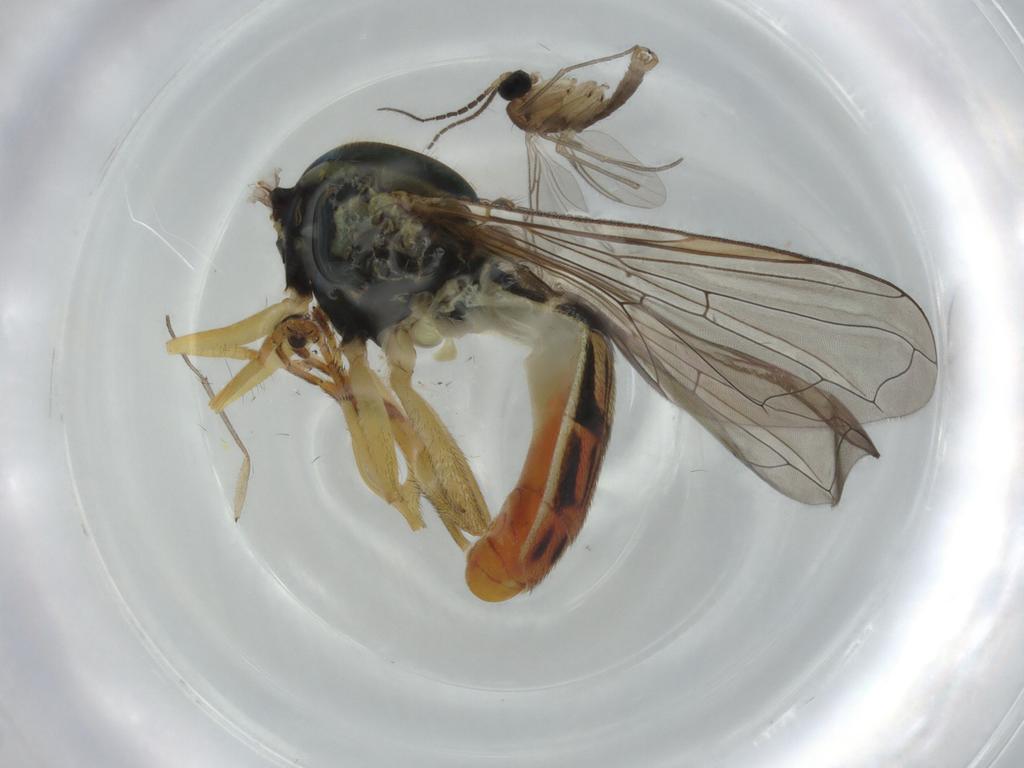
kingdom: Animalia
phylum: Arthropoda
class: Insecta
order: Diptera
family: Syrphidae
